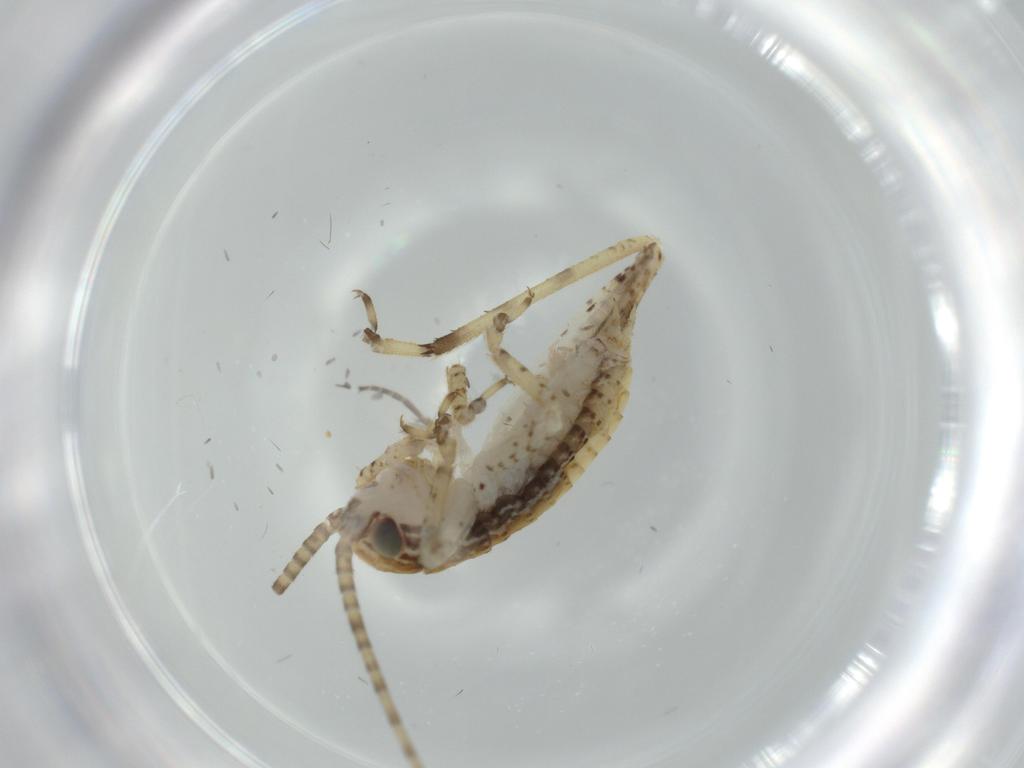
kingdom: Animalia
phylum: Arthropoda
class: Insecta
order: Orthoptera
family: Gryllidae
